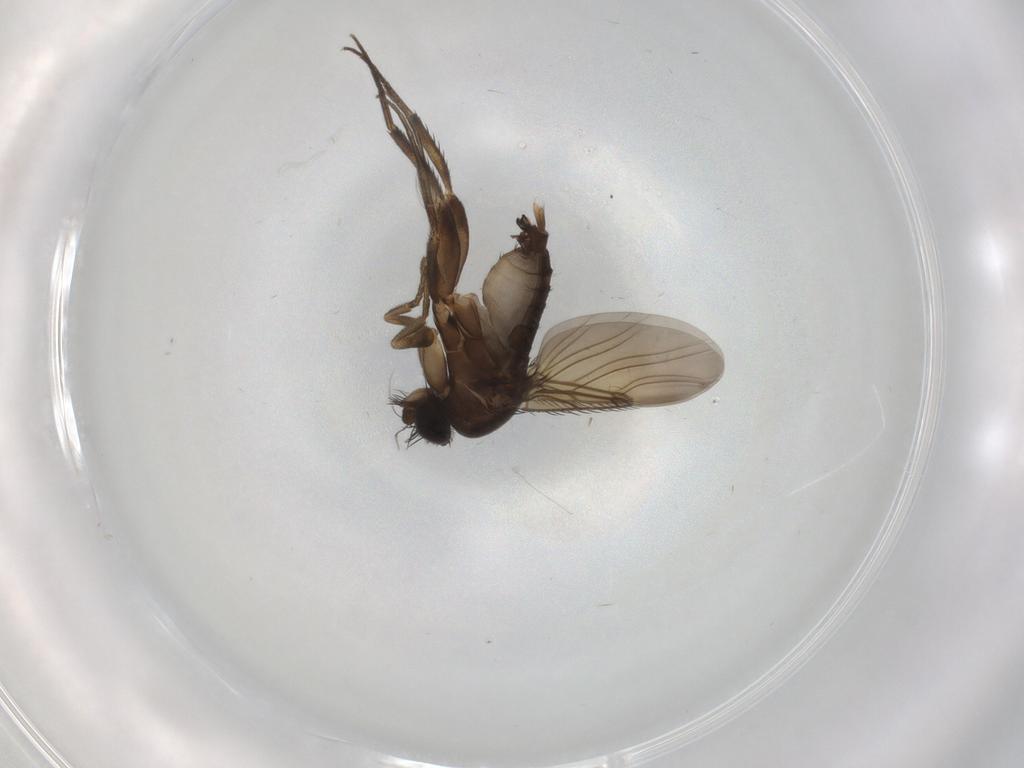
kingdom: Animalia
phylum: Arthropoda
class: Insecta
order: Diptera
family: Phoridae
